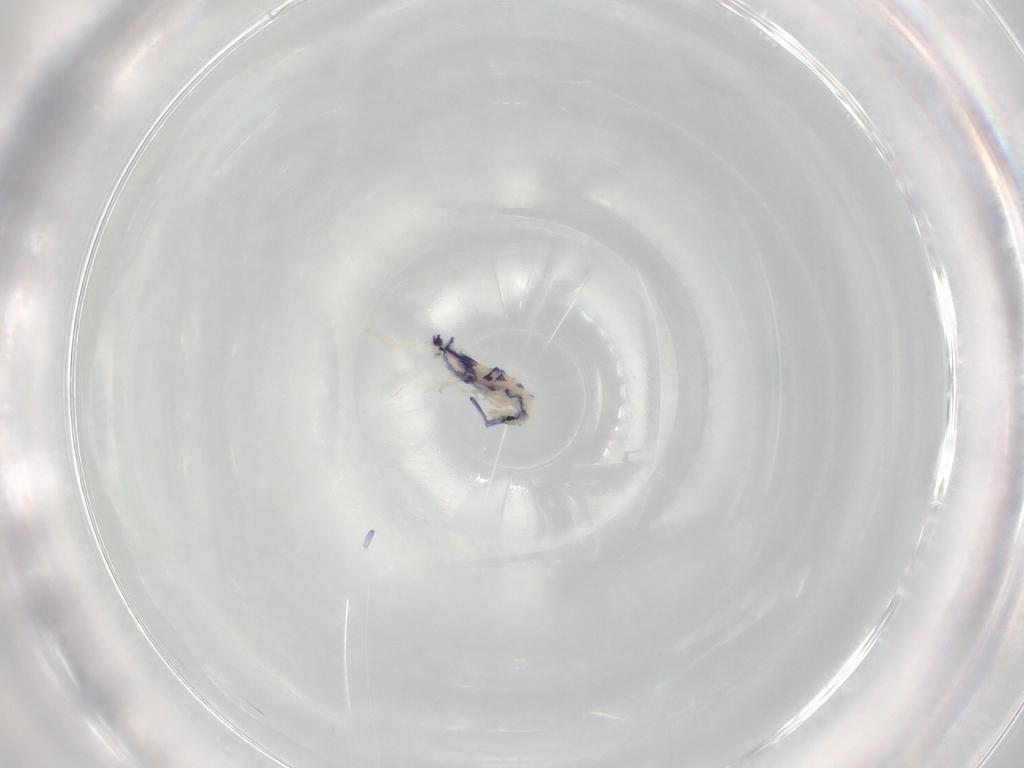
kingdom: Animalia
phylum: Arthropoda
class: Collembola
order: Entomobryomorpha
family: Entomobryidae
